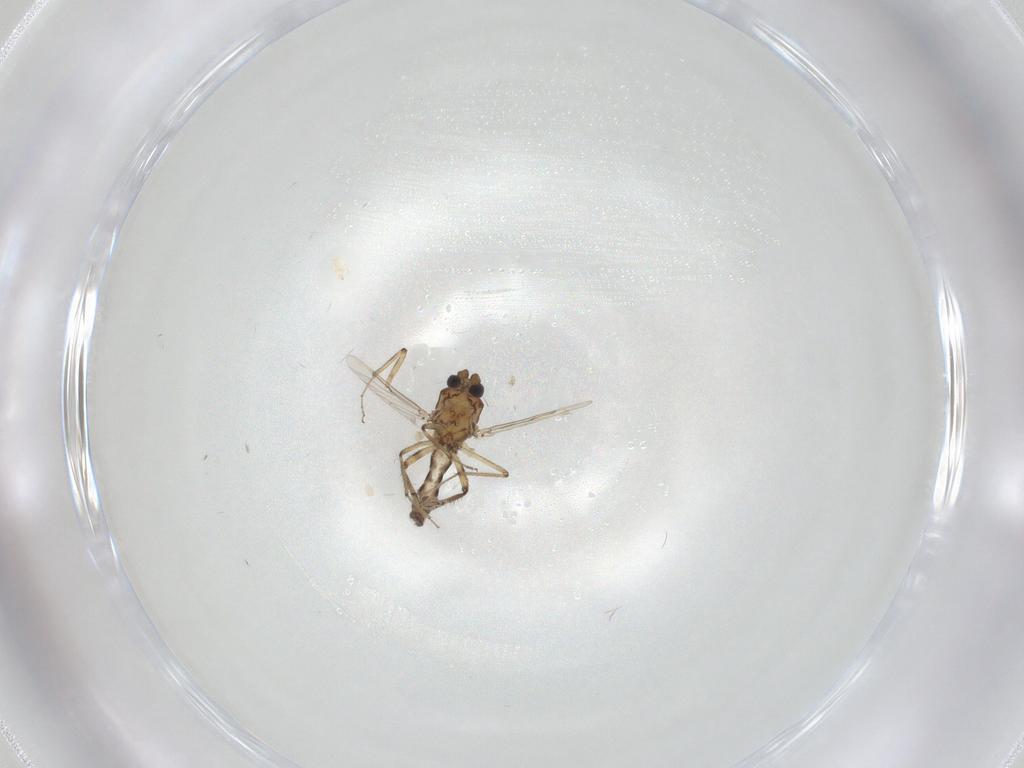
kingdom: Animalia
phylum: Arthropoda
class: Insecta
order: Diptera
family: Ceratopogonidae
